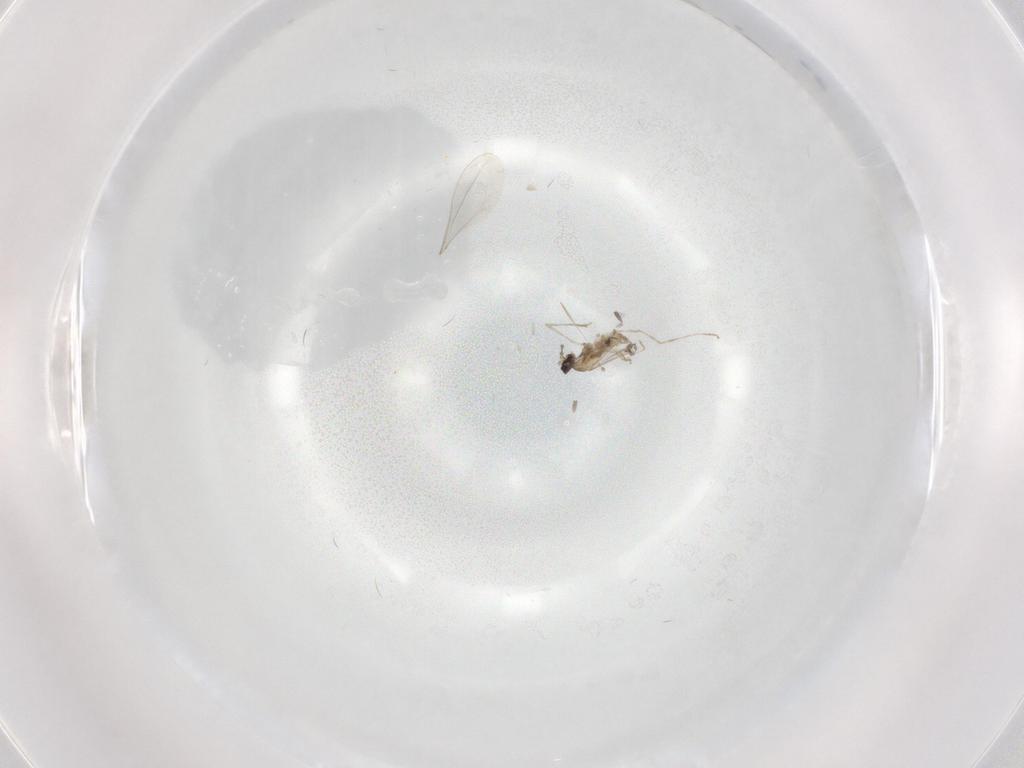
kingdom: Animalia
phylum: Arthropoda
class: Insecta
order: Diptera
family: Cecidomyiidae
